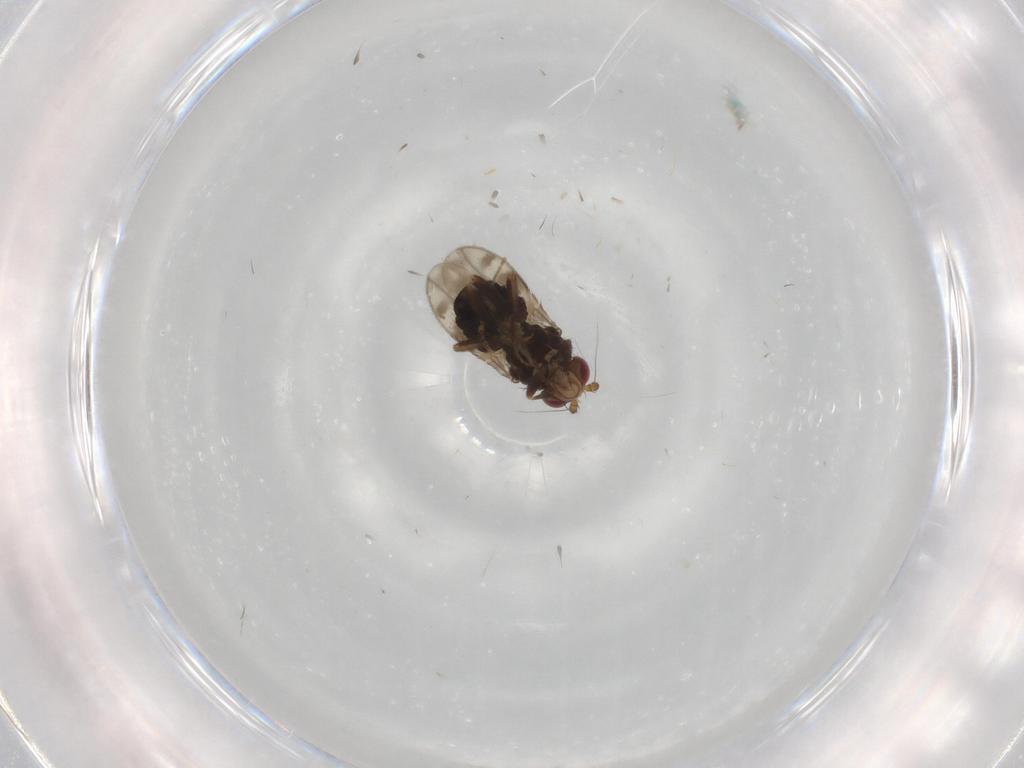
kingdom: Animalia
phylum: Arthropoda
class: Insecta
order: Diptera
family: Sphaeroceridae
